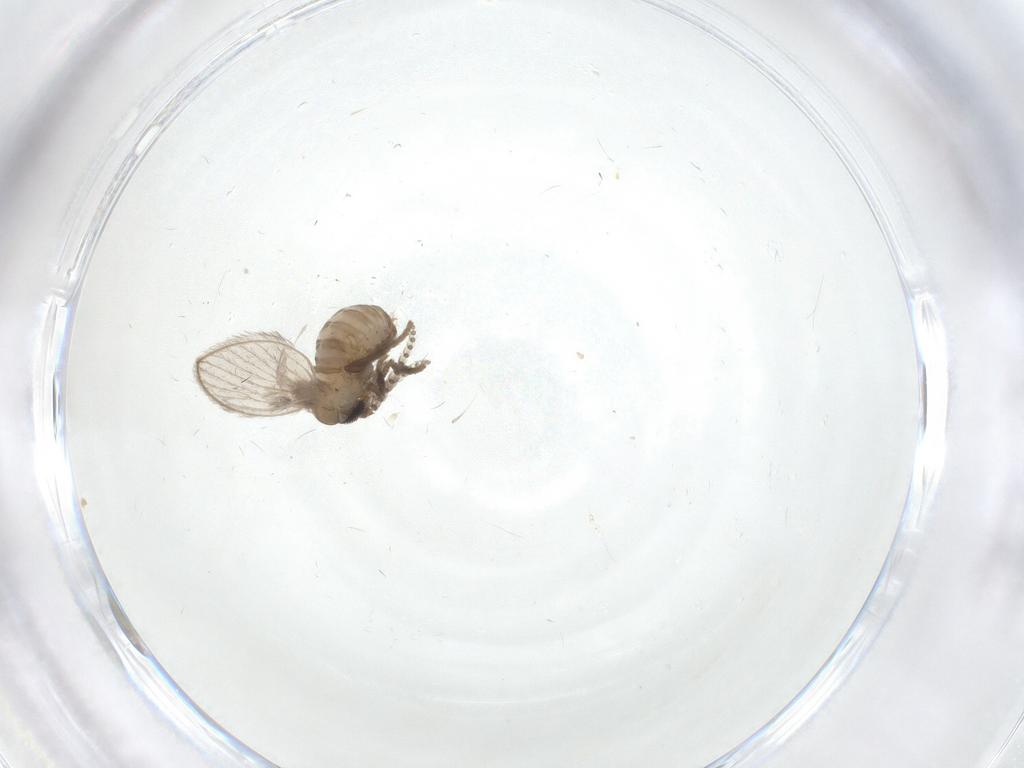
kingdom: Animalia
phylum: Arthropoda
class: Insecta
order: Diptera
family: Psychodidae
